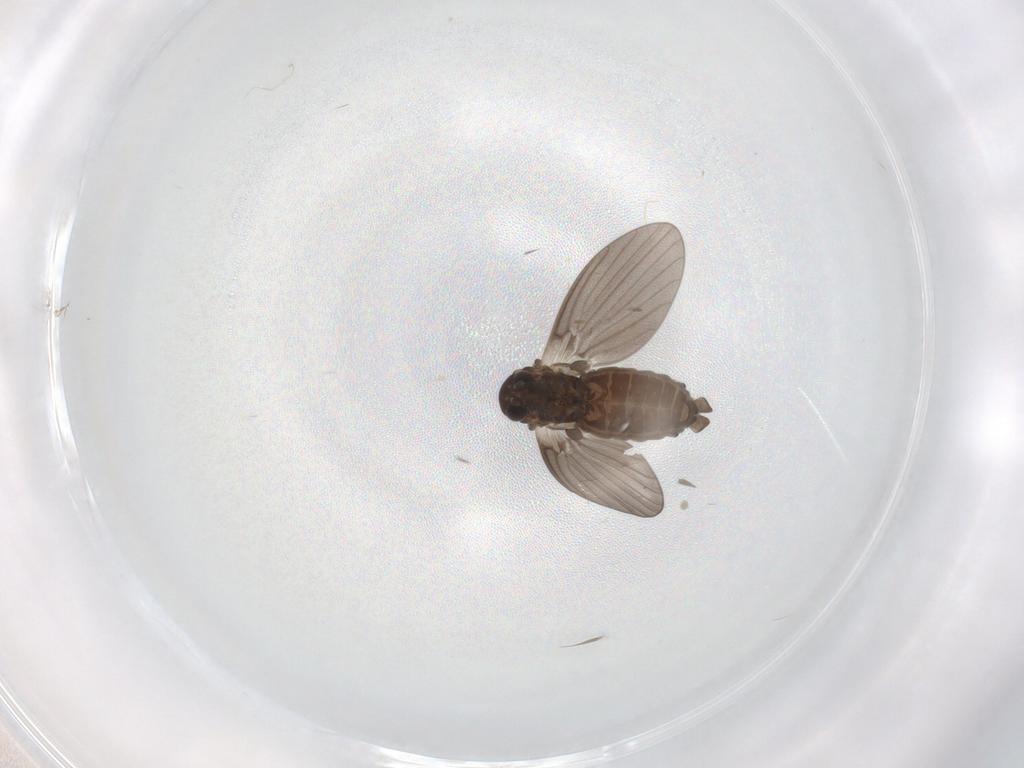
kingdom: Animalia
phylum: Arthropoda
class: Insecta
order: Diptera
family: Psychodidae
